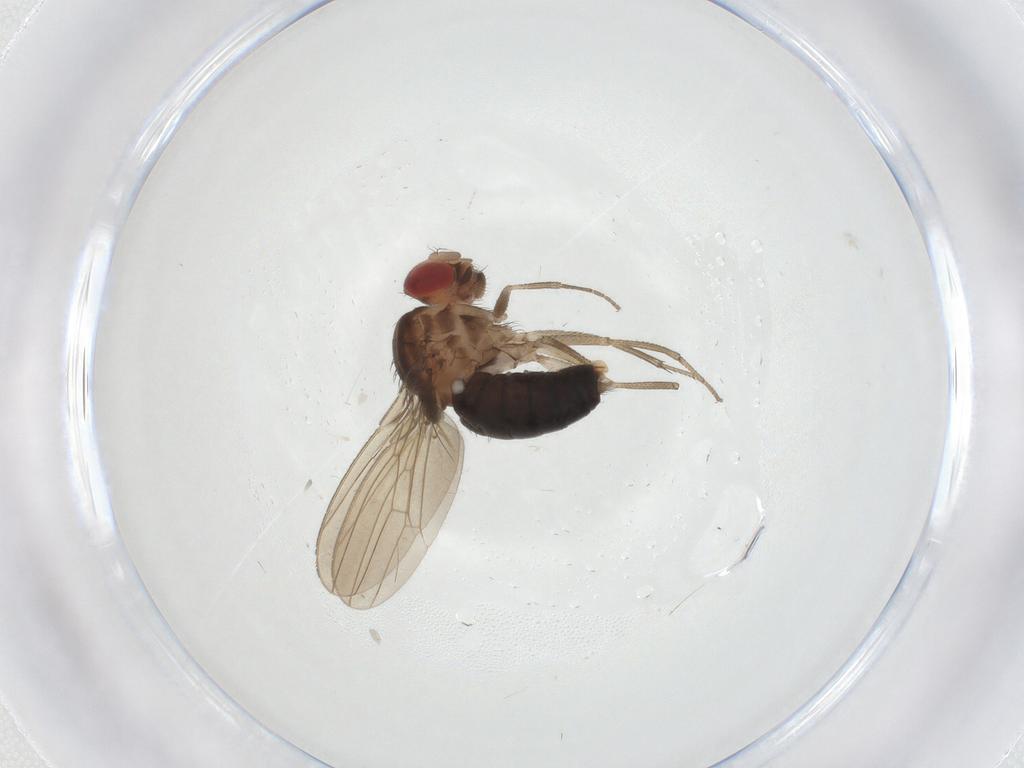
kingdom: Animalia
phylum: Arthropoda
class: Insecta
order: Diptera
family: Drosophilidae
